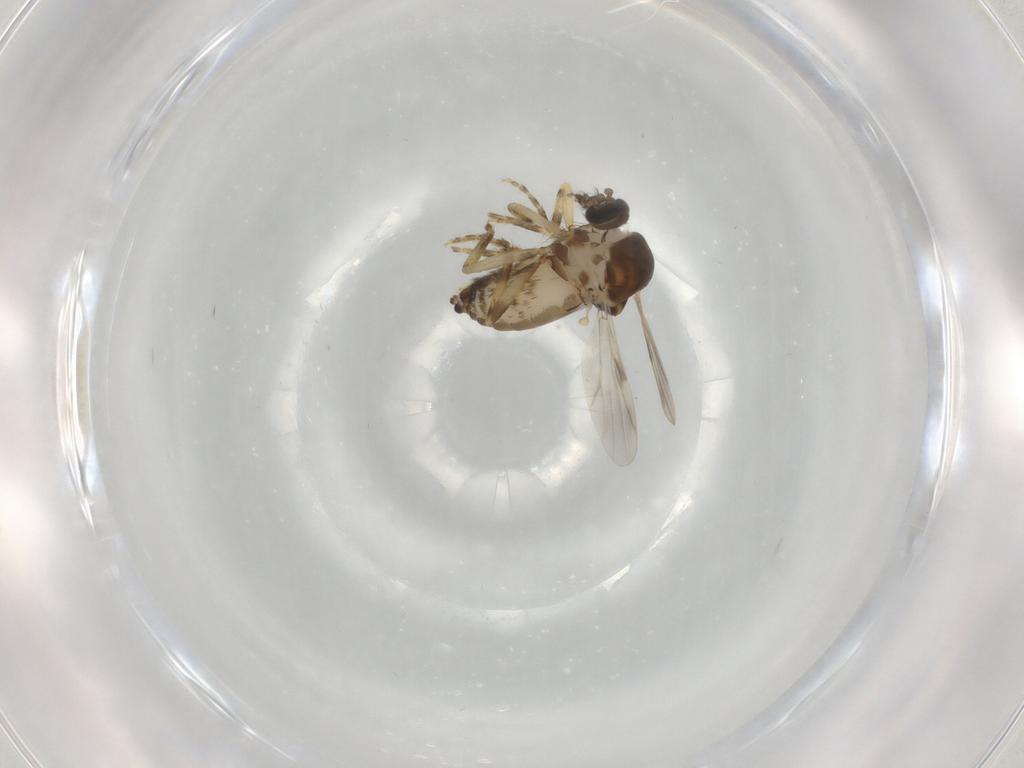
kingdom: Animalia
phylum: Arthropoda
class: Insecta
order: Diptera
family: Ceratopogonidae
